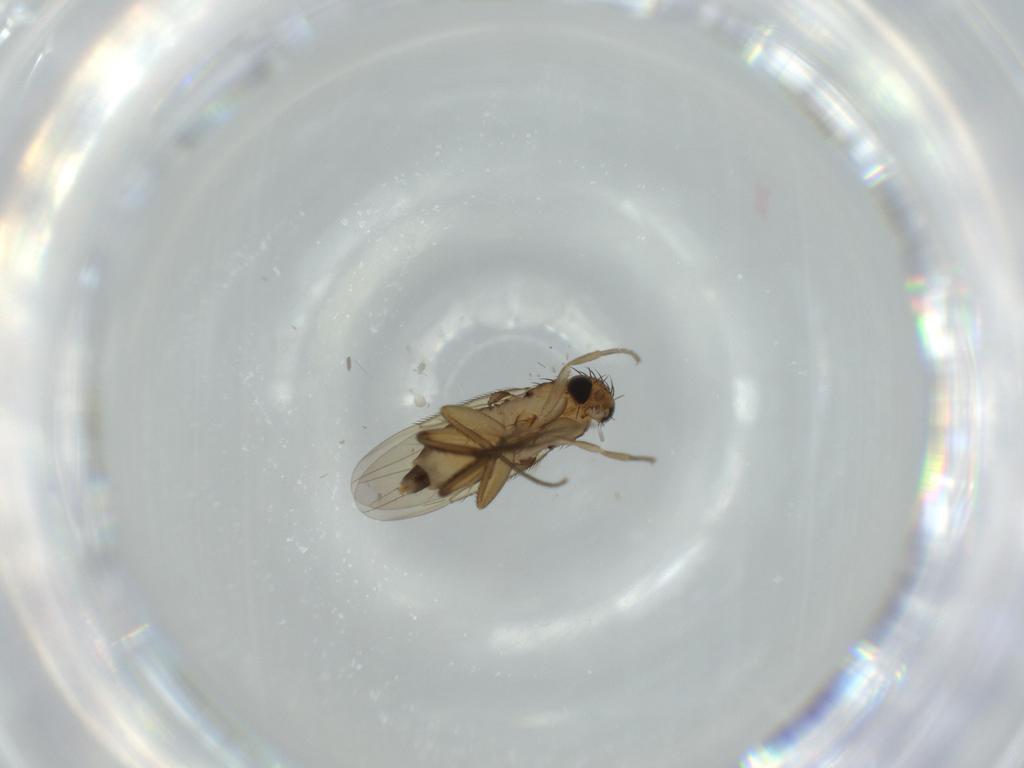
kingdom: Animalia
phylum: Arthropoda
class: Insecta
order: Diptera
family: Phoridae
